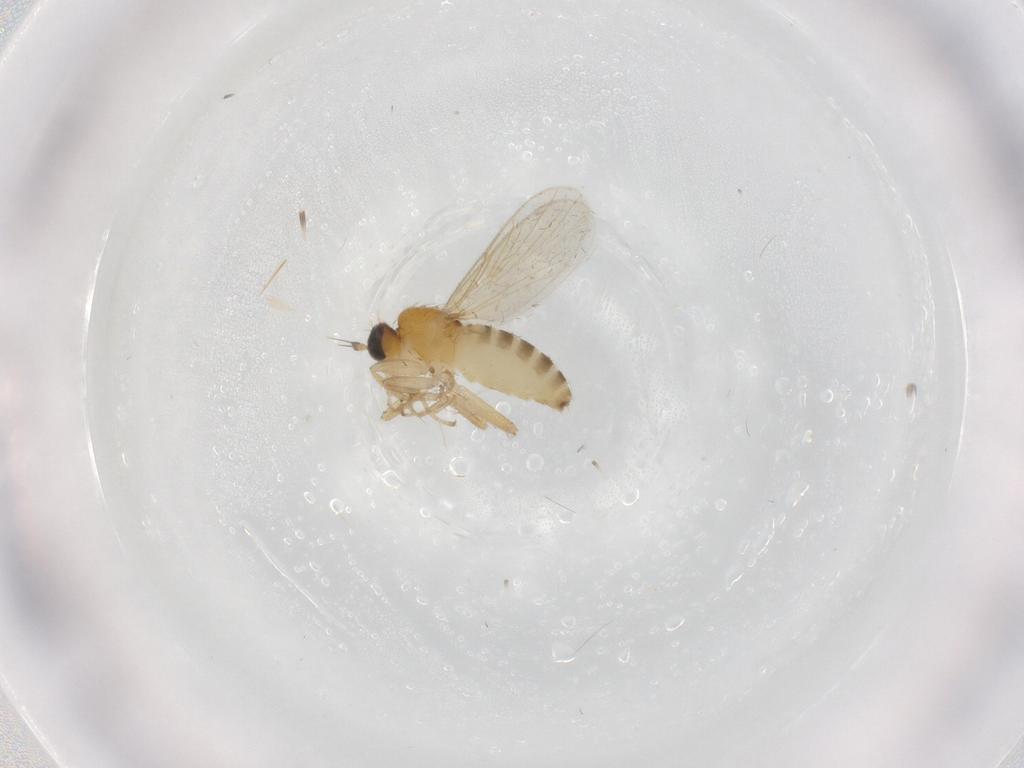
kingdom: Animalia
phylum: Arthropoda
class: Insecta
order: Diptera
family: Hybotidae
